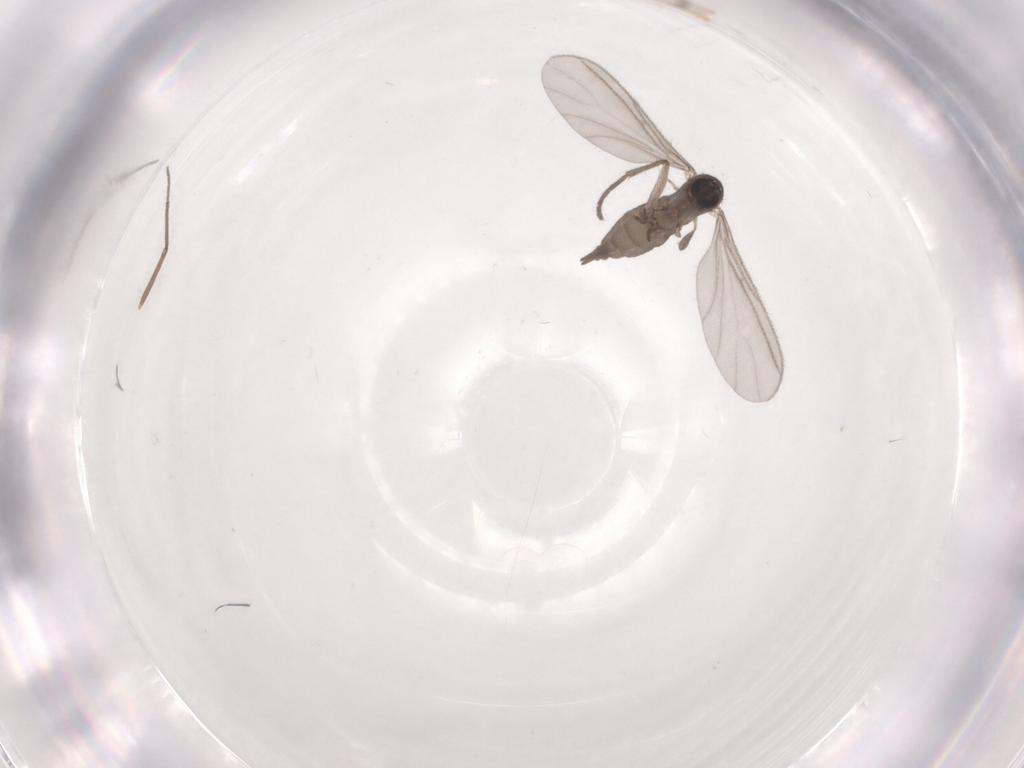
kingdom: Animalia
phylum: Arthropoda
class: Insecta
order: Diptera
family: Sciaridae
